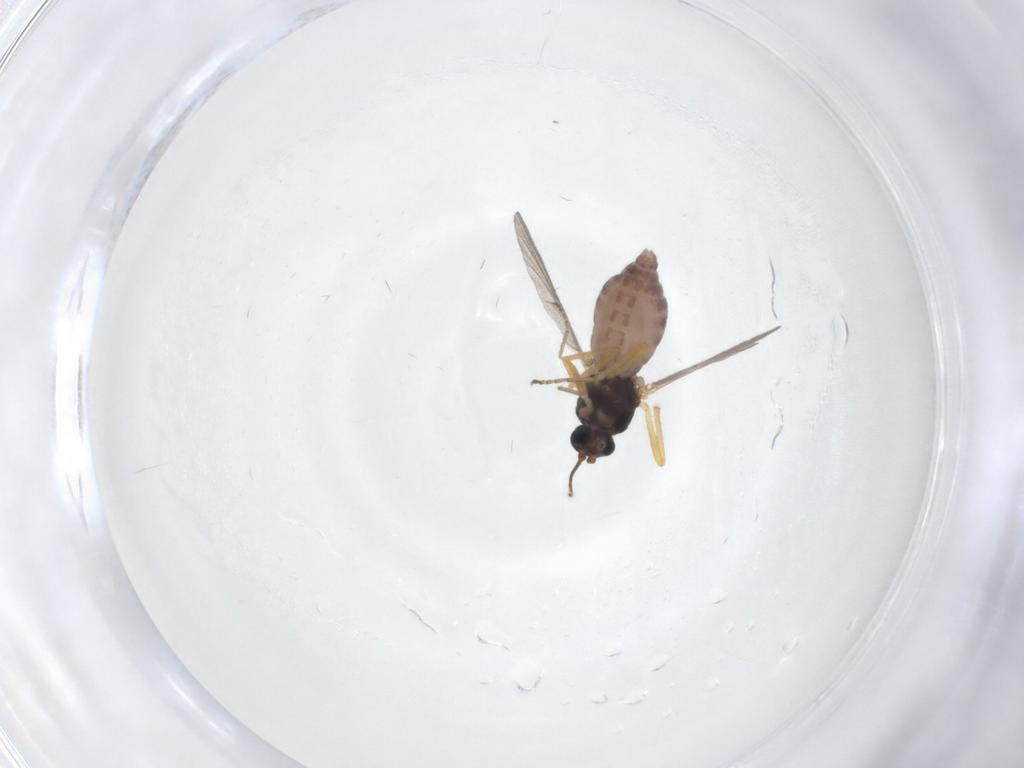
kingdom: Animalia
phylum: Arthropoda
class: Insecta
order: Diptera
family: Ceratopogonidae
